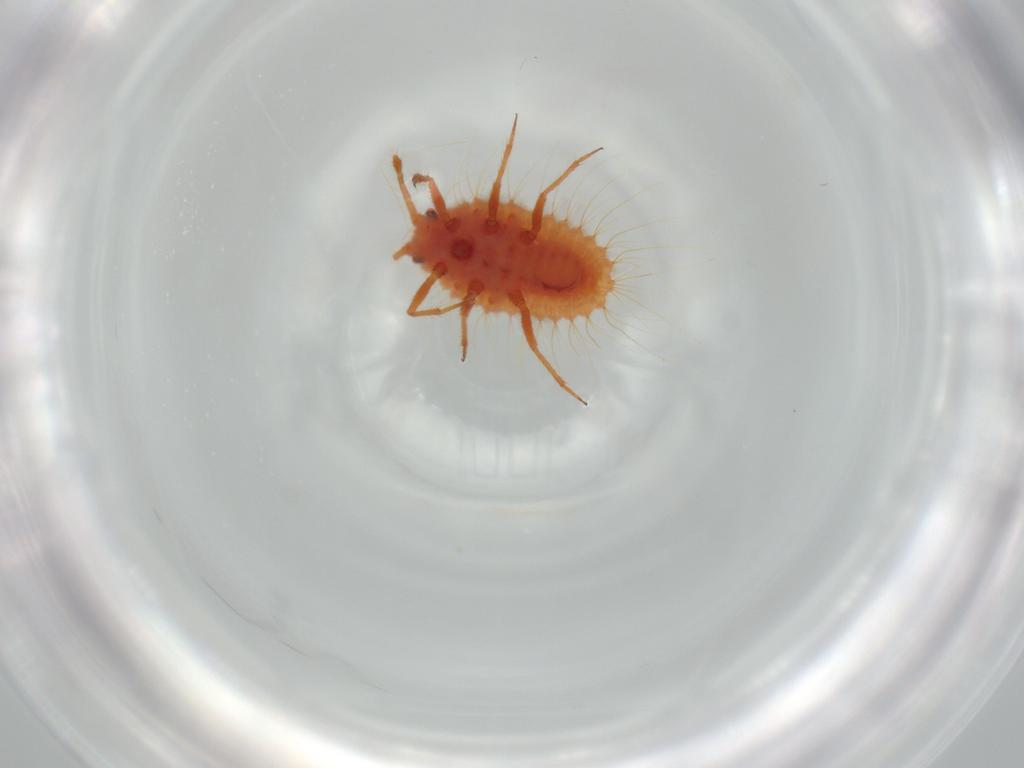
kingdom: Animalia
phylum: Arthropoda
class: Insecta
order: Hemiptera
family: Coccoidea_incertae_sedis
